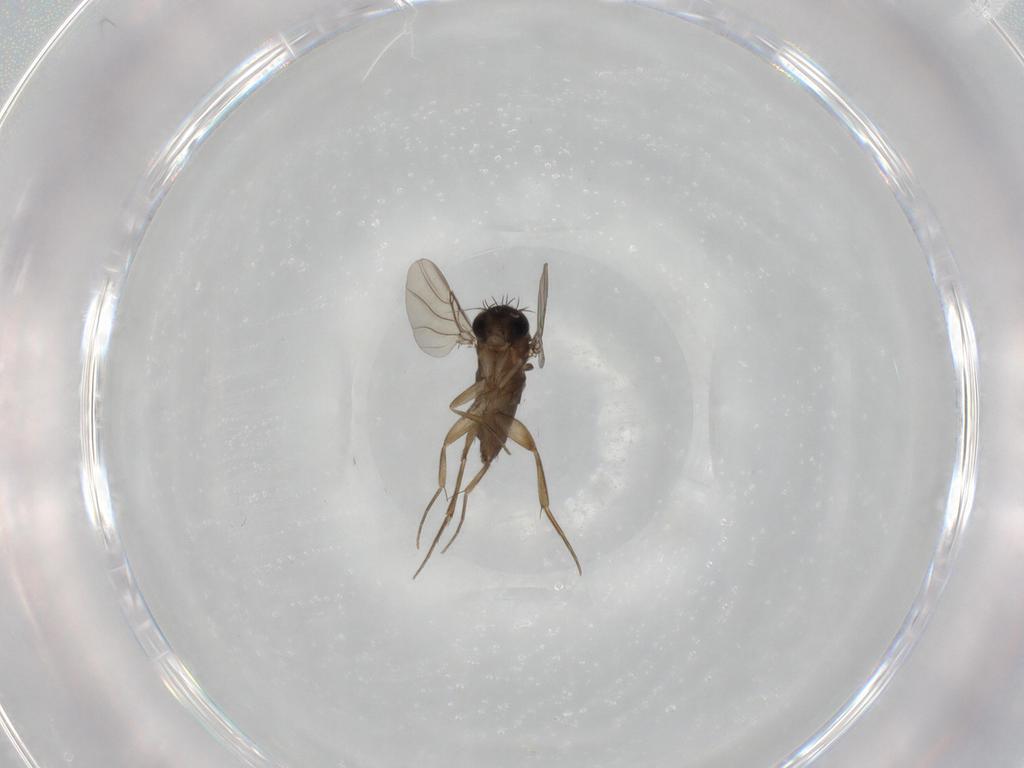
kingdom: Animalia
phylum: Arthropoda
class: Insecta
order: Diptera
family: Phoridae
